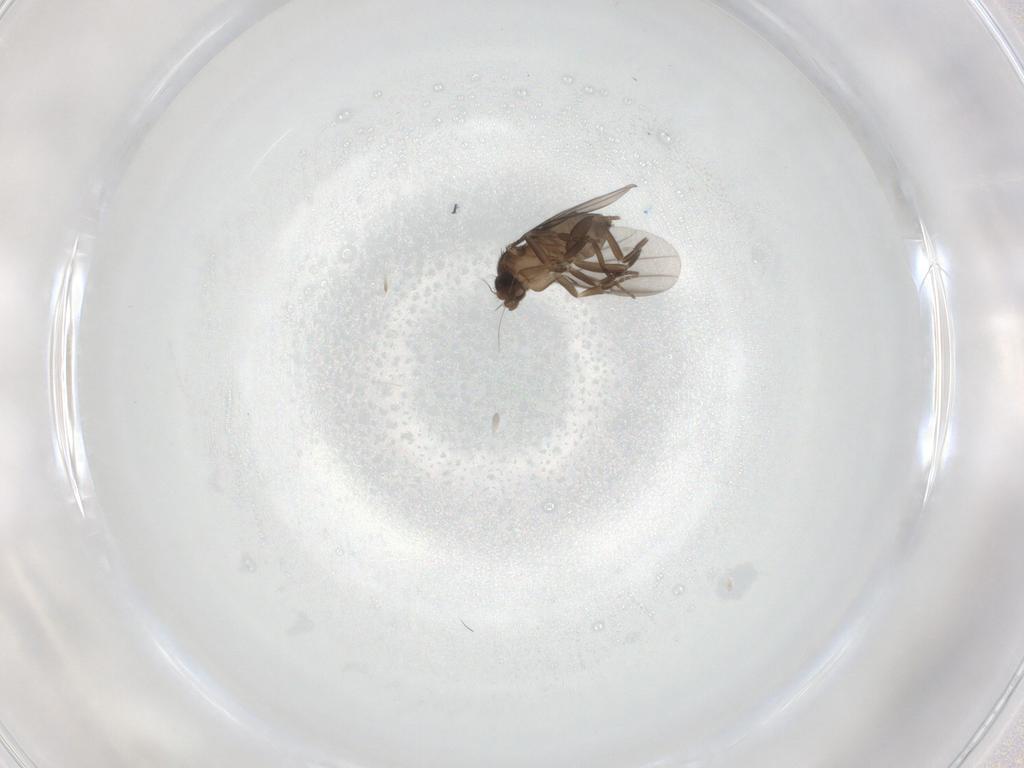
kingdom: Animalia
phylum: Arthropoda
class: Insecta
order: Diptera
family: Phoridae
